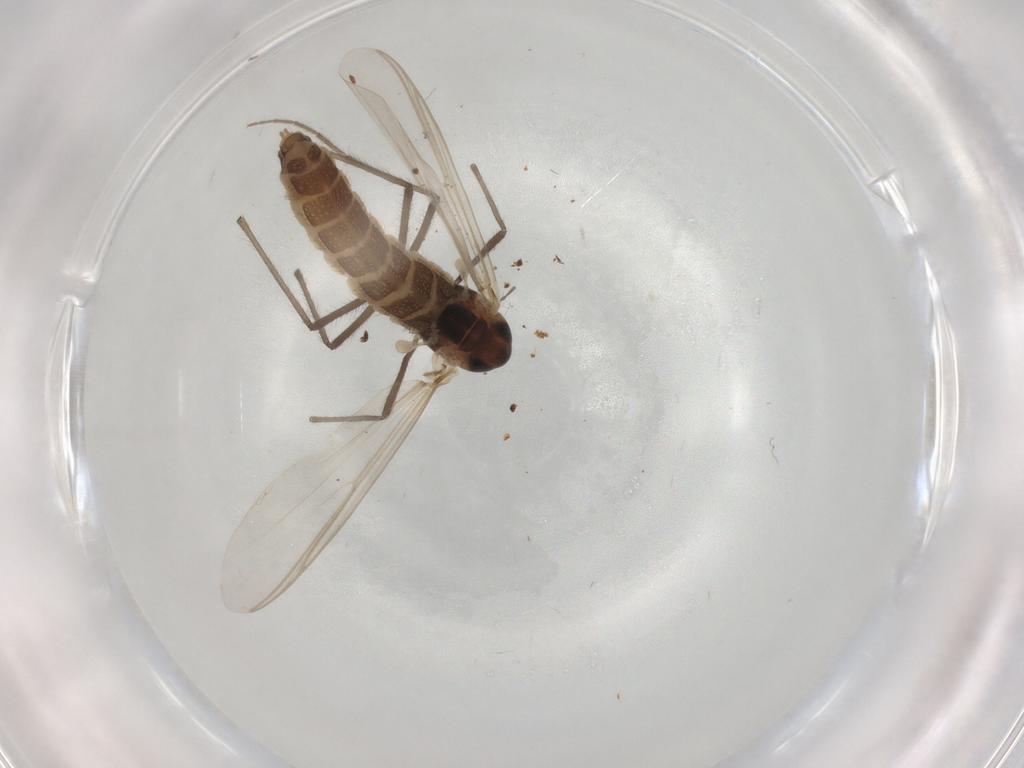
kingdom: Animalia
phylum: Arthropoda
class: Insecta
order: Diptera
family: Chironomidae
